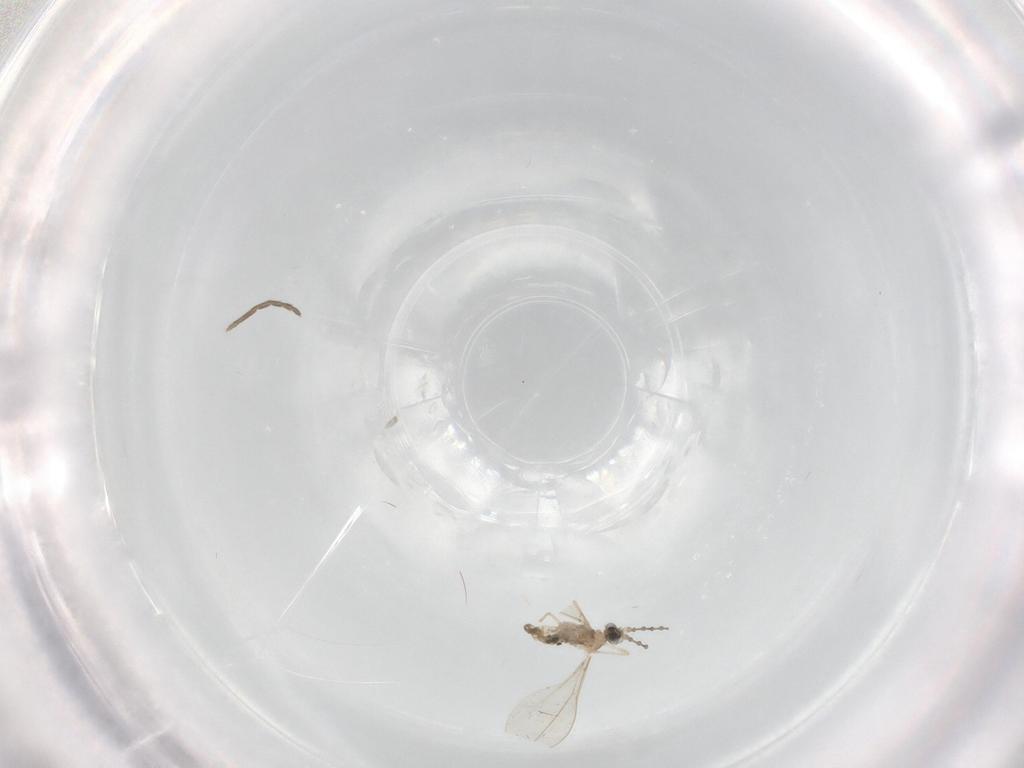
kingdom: Animalia
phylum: Arthropoda
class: Insecta
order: Diptera
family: Cecidomyiidae
